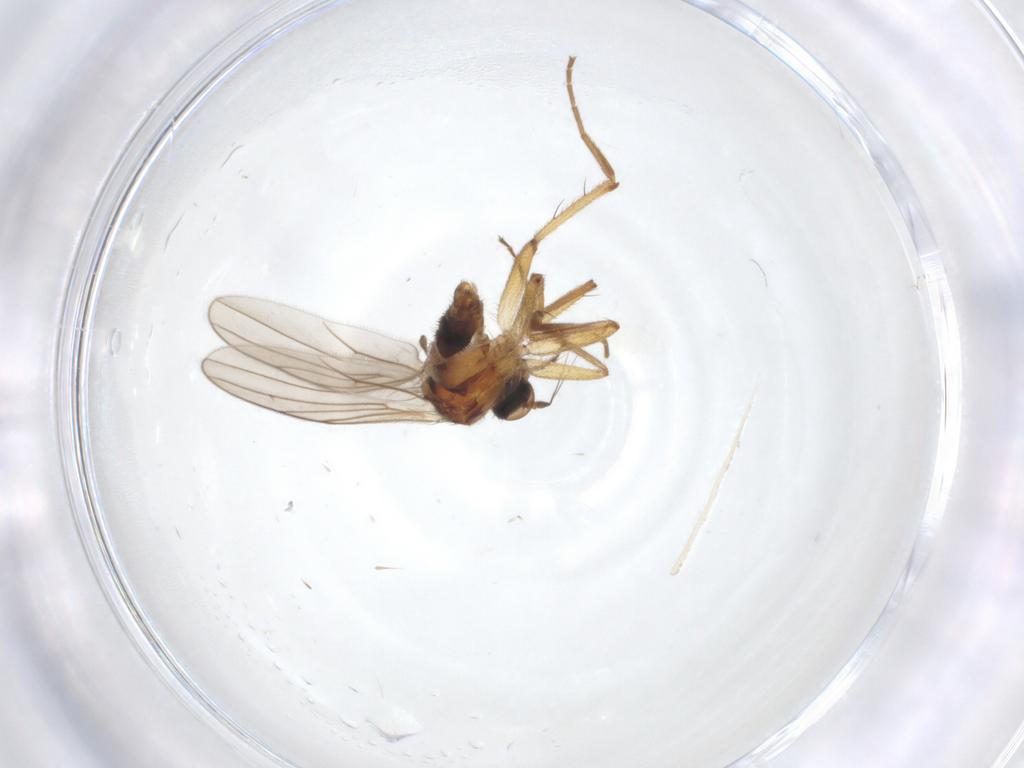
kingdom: Animalia
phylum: Arthropoda
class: Insecta
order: Diptera
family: Hybotidae
